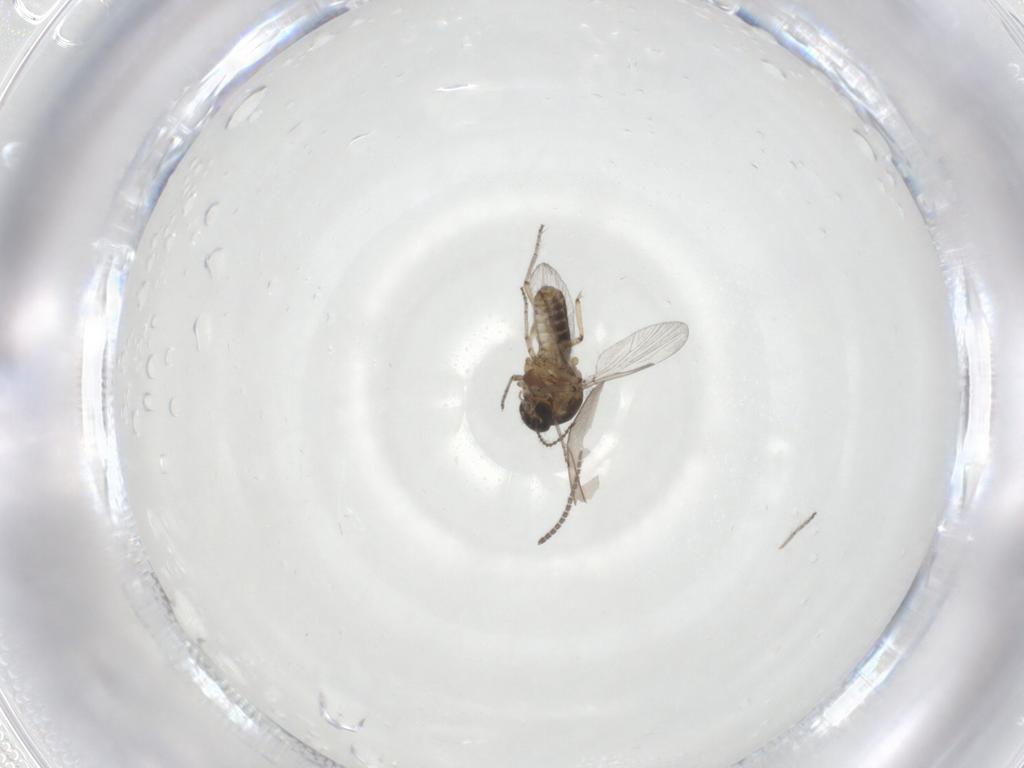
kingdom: Animalia
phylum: Arthropoda
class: Insecta
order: Diptera
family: Ceratopogonidae
